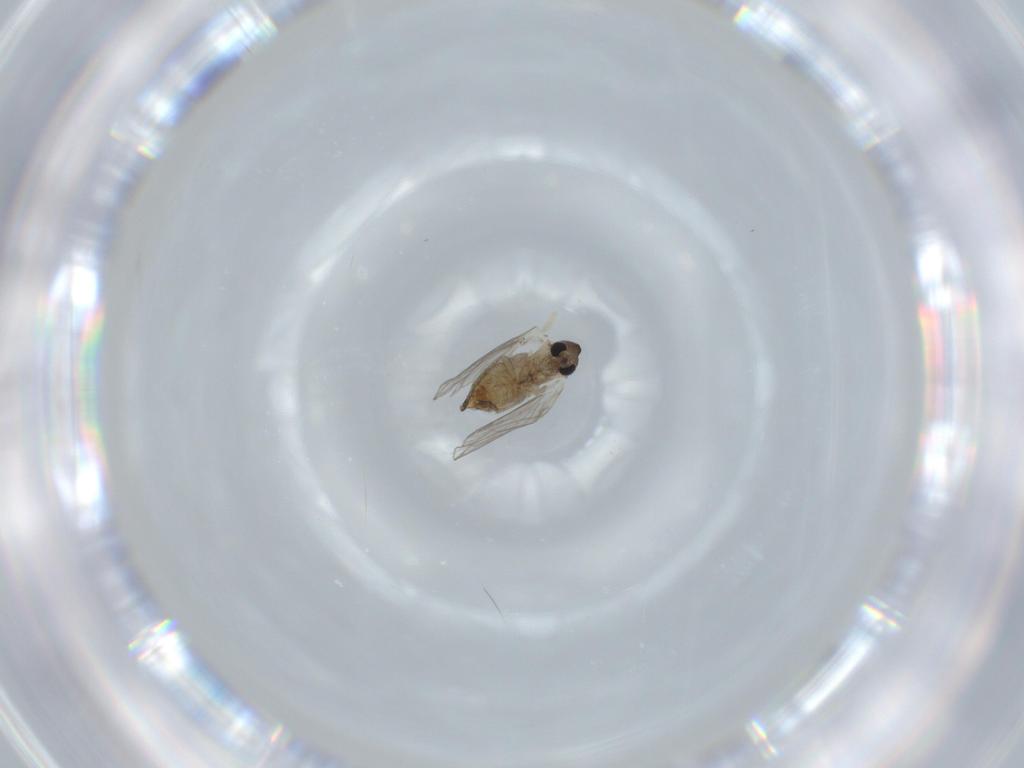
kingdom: Animalia
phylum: Arthropoda
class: Insecta
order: Diptera
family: Psychodidae
